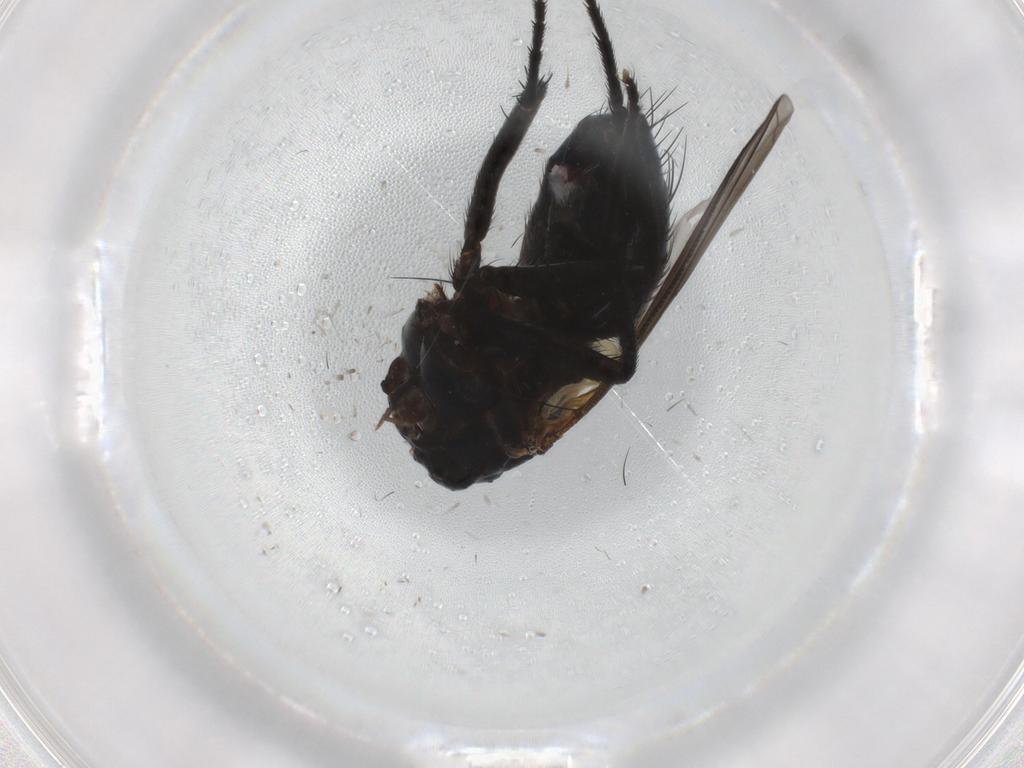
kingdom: Animalia
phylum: Arthropoda
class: Insecta
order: Diptera
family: Tachinidae
